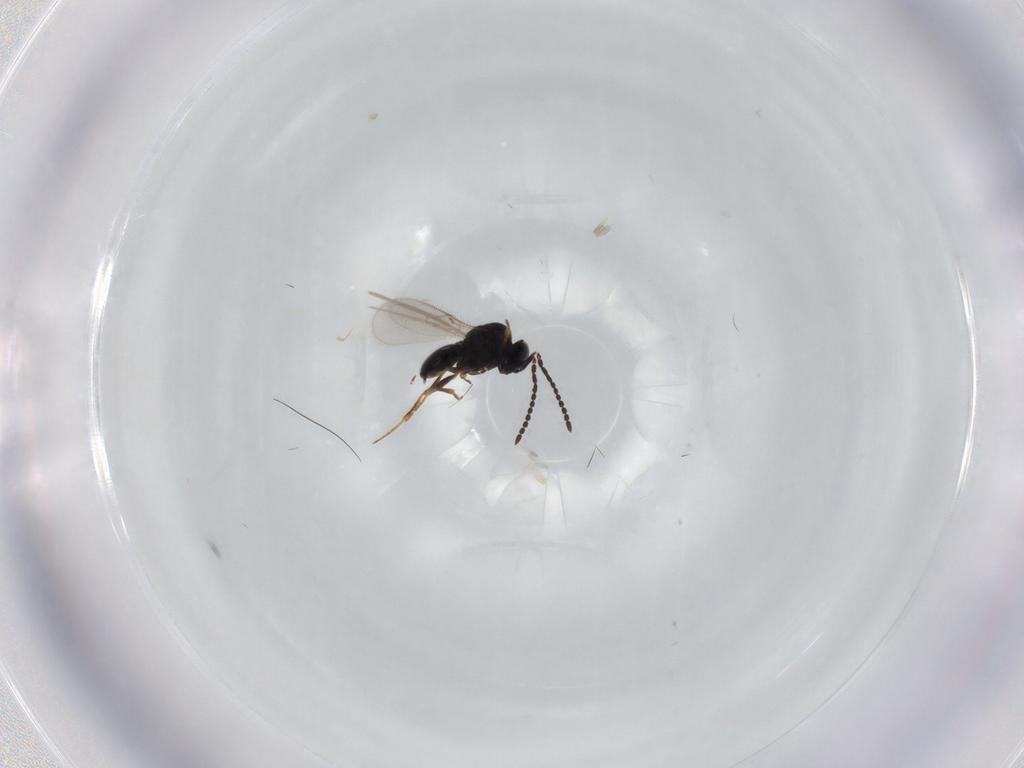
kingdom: Animalia
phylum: Arthropoda
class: Insecta
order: Hymenoptera
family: Scelionidae
